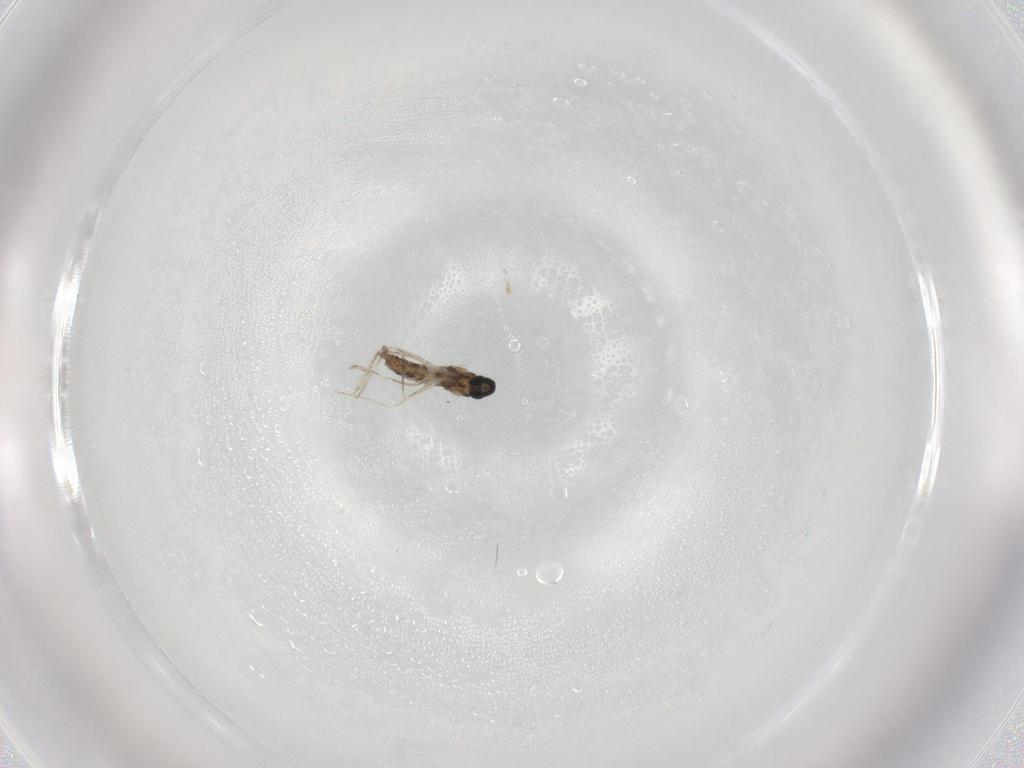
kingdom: Animalia
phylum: Arthropoda
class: Insecta
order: Diptera
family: Cecidomyiidae
